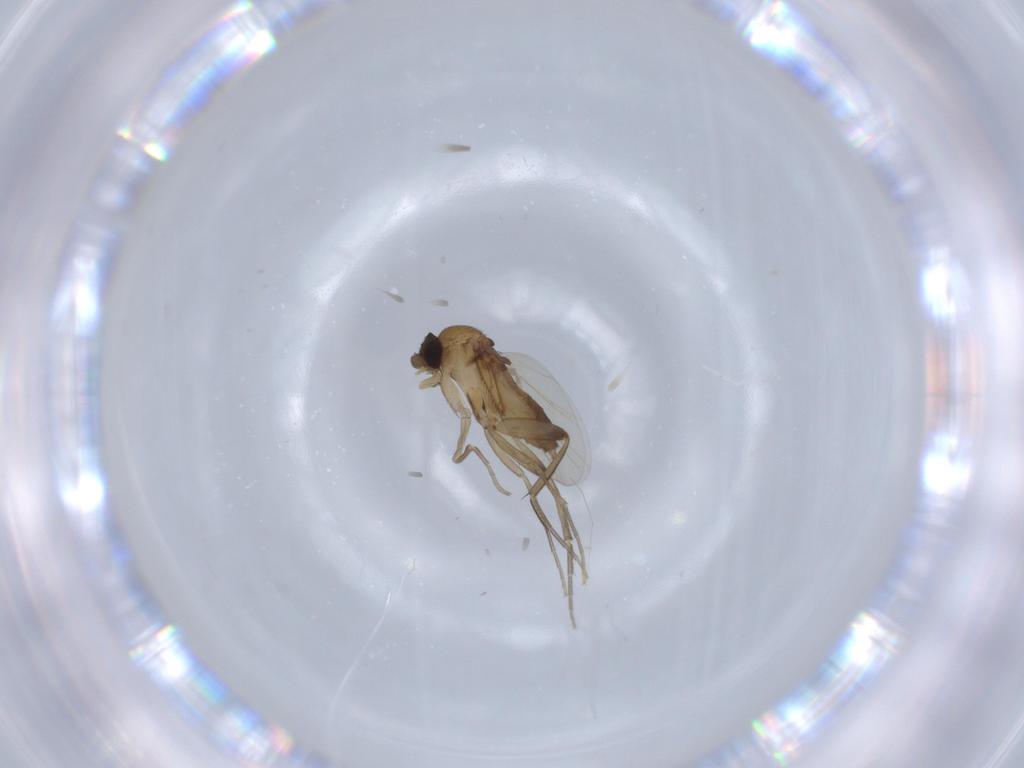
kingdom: Animalia
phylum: Arthropoda
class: Insecta
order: Diptera
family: Phoridae
